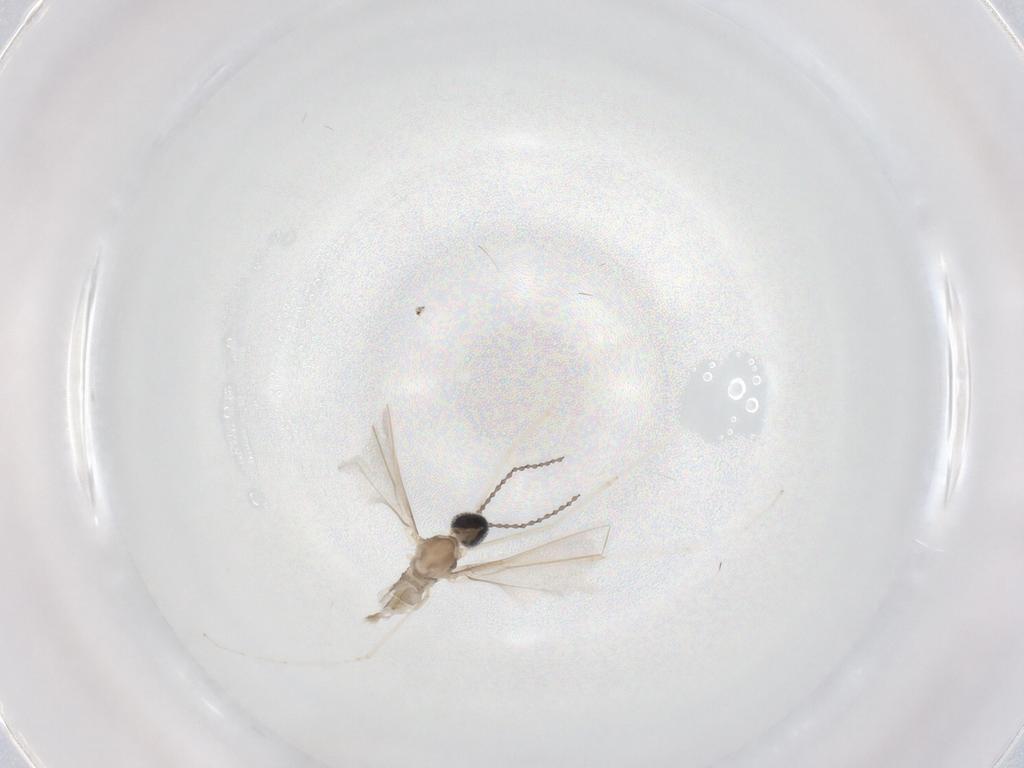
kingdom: Animalia
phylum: Arthropoda
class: Insecta
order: Diptera
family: Cecidomyiidae
